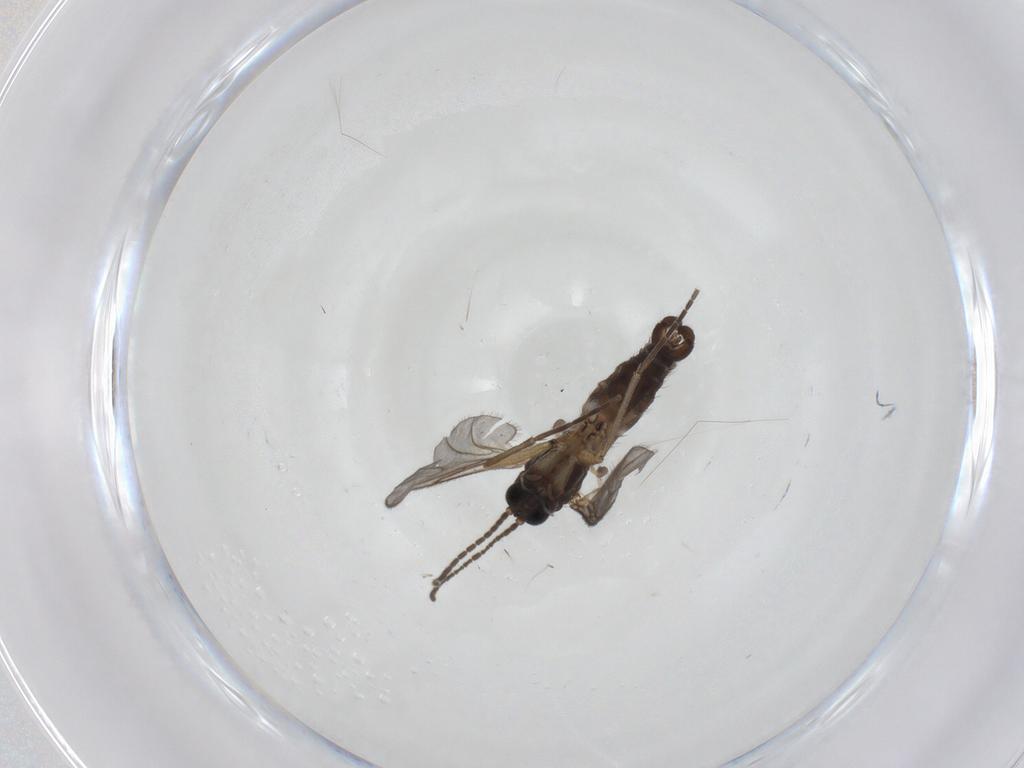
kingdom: Animalia
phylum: Arthropoda
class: Insecta
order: Diptera
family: Sciaridae
